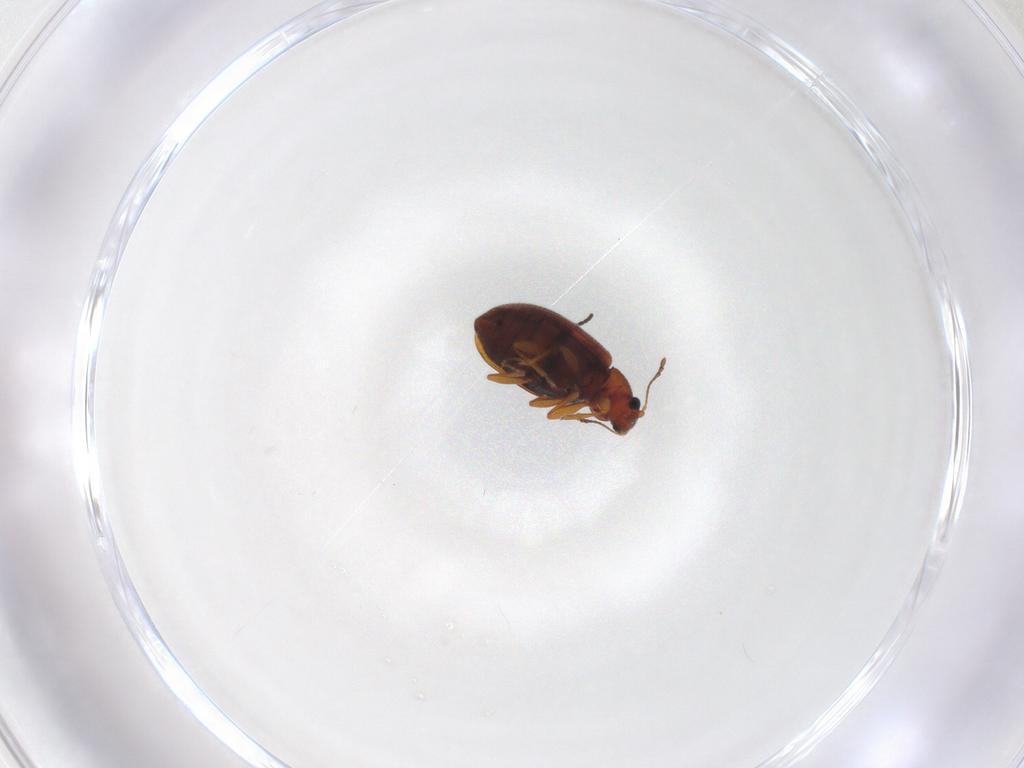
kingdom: Animalia
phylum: Arthropoda
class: Insecta
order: Coleoptera
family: Latridiidae
